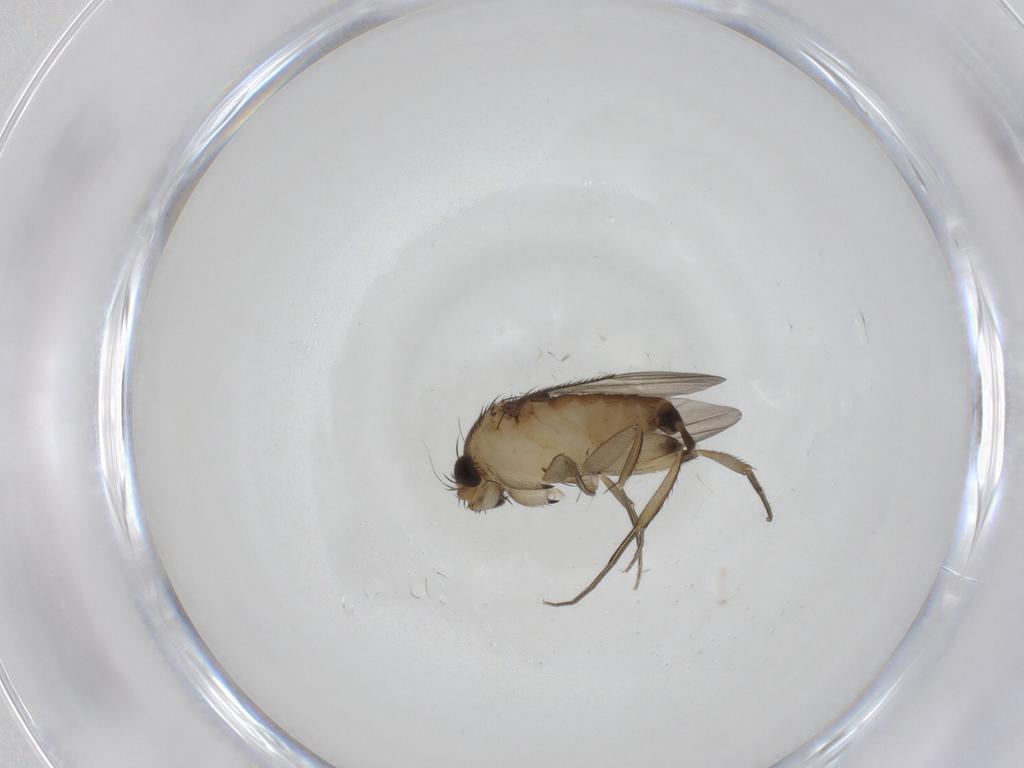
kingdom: Animalia
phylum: Arthropoda
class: Insecta
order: Diptera
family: Phoridae
